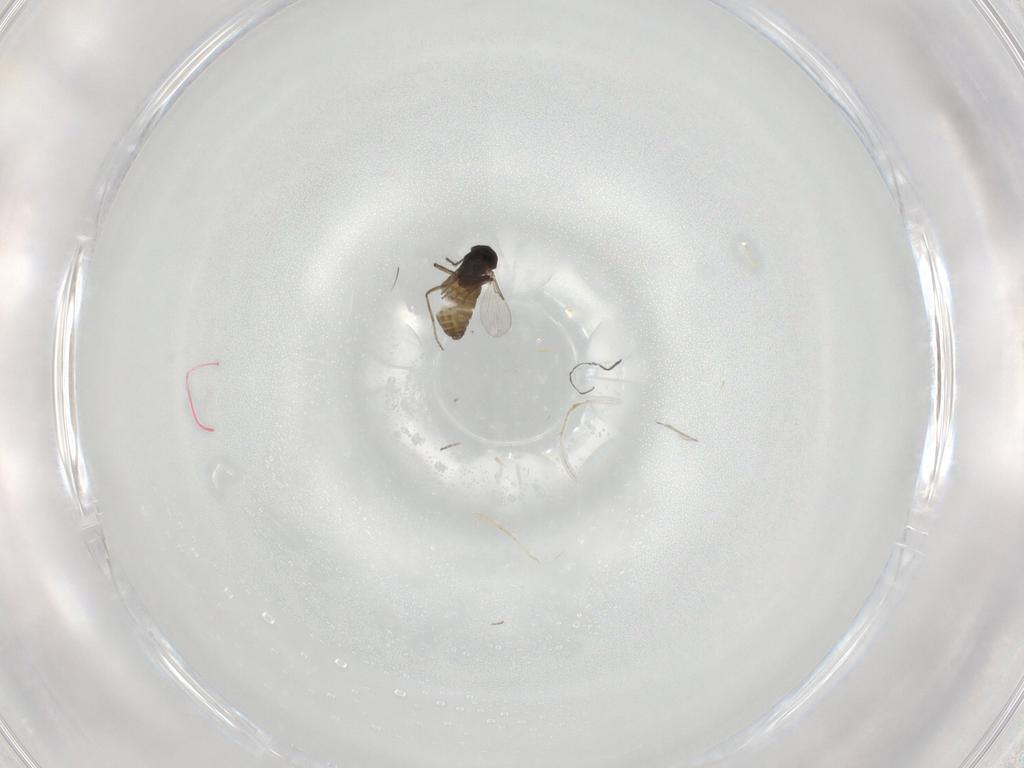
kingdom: Animalia
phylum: Arthropoda
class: Insecta
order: Diptera
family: Ceratopogonidae
